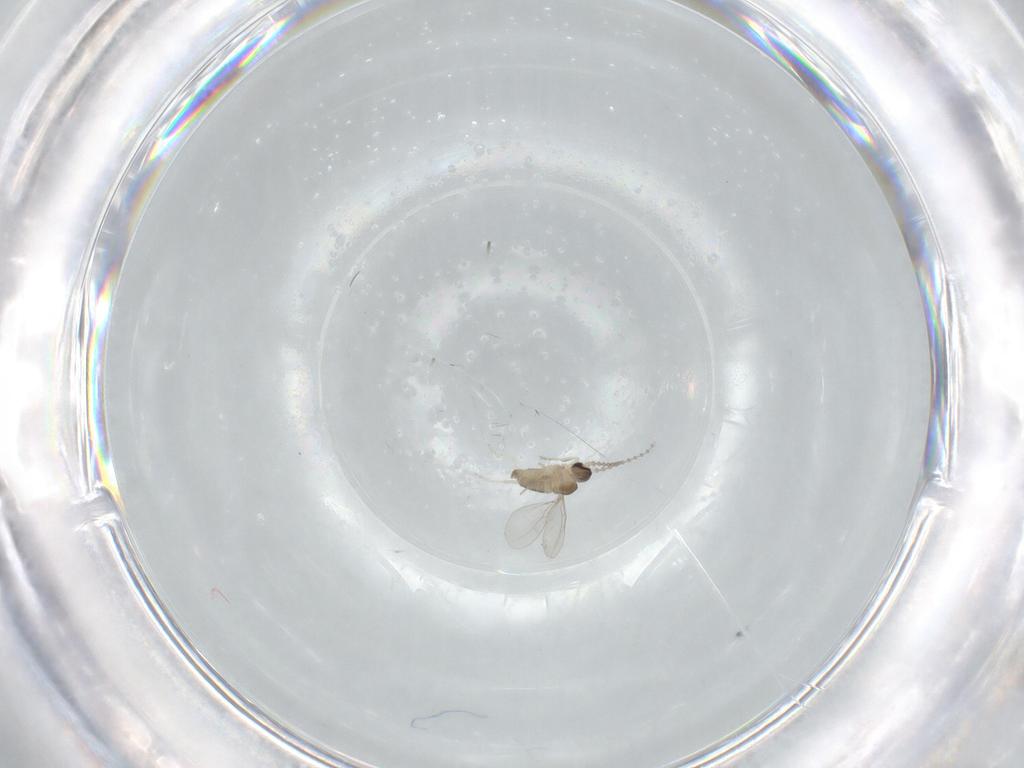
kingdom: Animalia
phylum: Arthropoda
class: Insecta
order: Diptera
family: Cecidomyiidae
